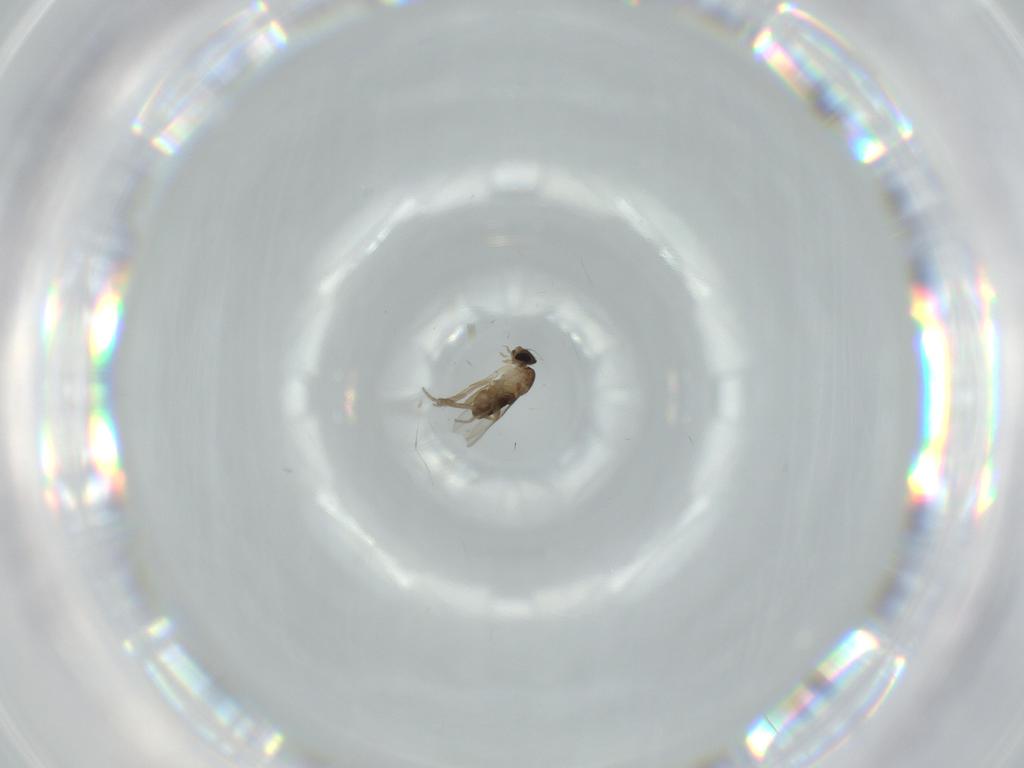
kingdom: Animalia
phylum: Arthropoda
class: Insecta
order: Diptera
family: Phoridae
